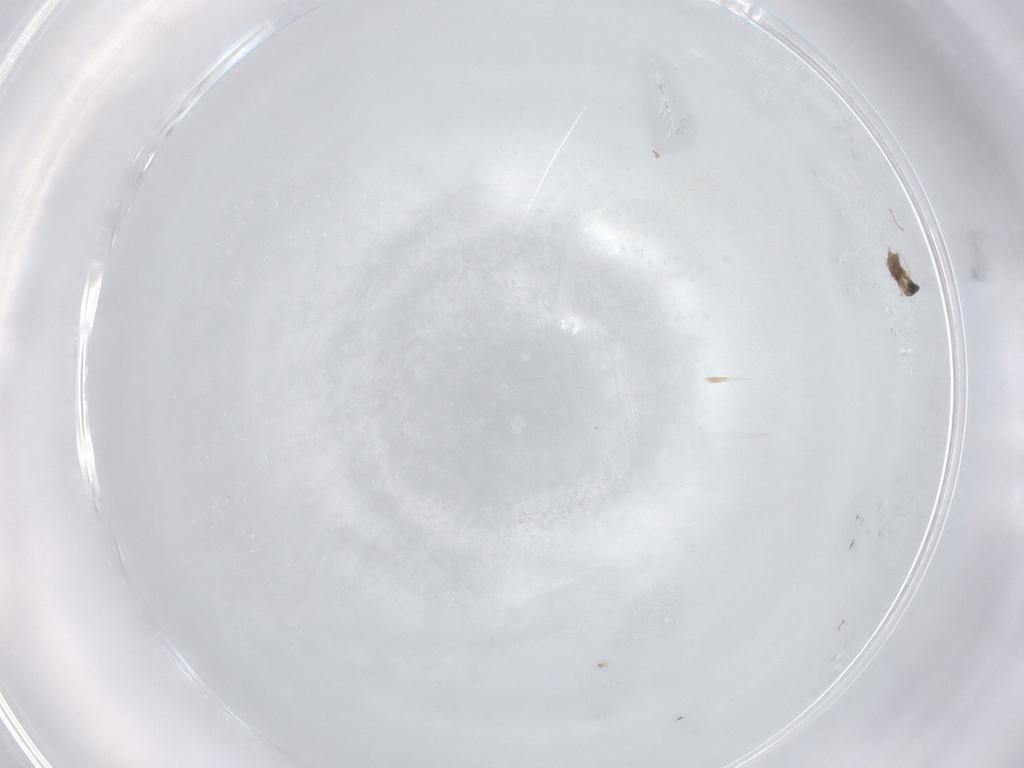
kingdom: Animalia
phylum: Arthropoda
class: Insecta
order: Diptera
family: Cecidomyiidae
